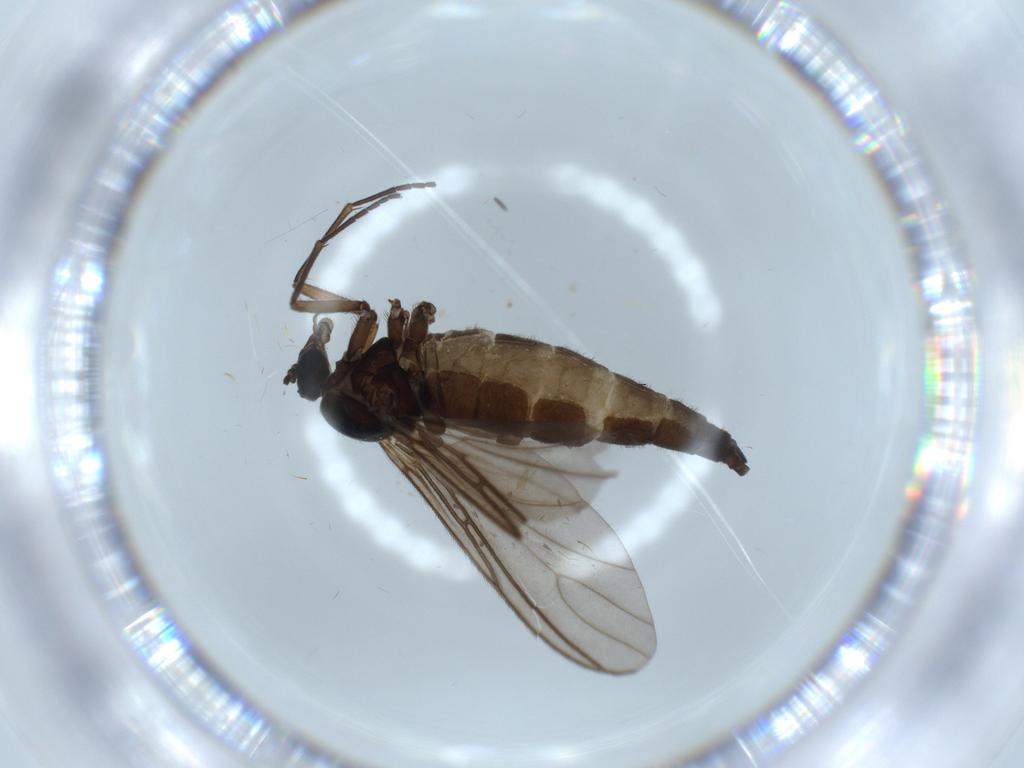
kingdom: Animalia
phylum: Arthropoda
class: Insecta
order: Diptera
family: Sciaridae
